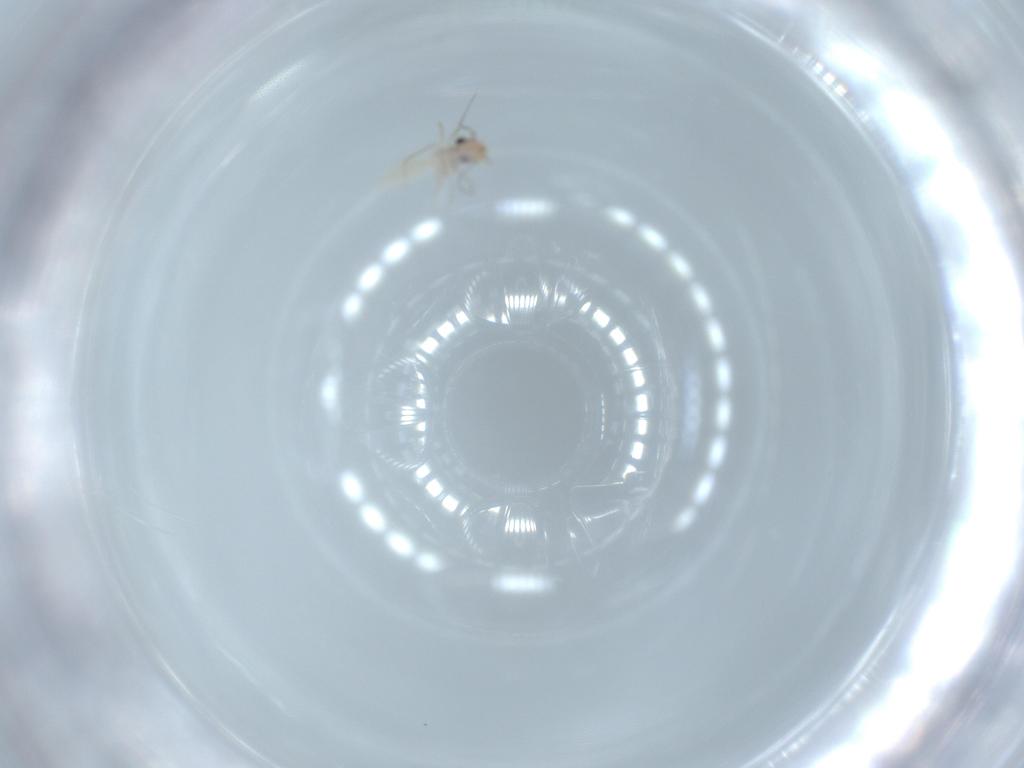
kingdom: Animalia
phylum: Arthropoda
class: Insecta
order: Psocodea
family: Lepidopsocidae
